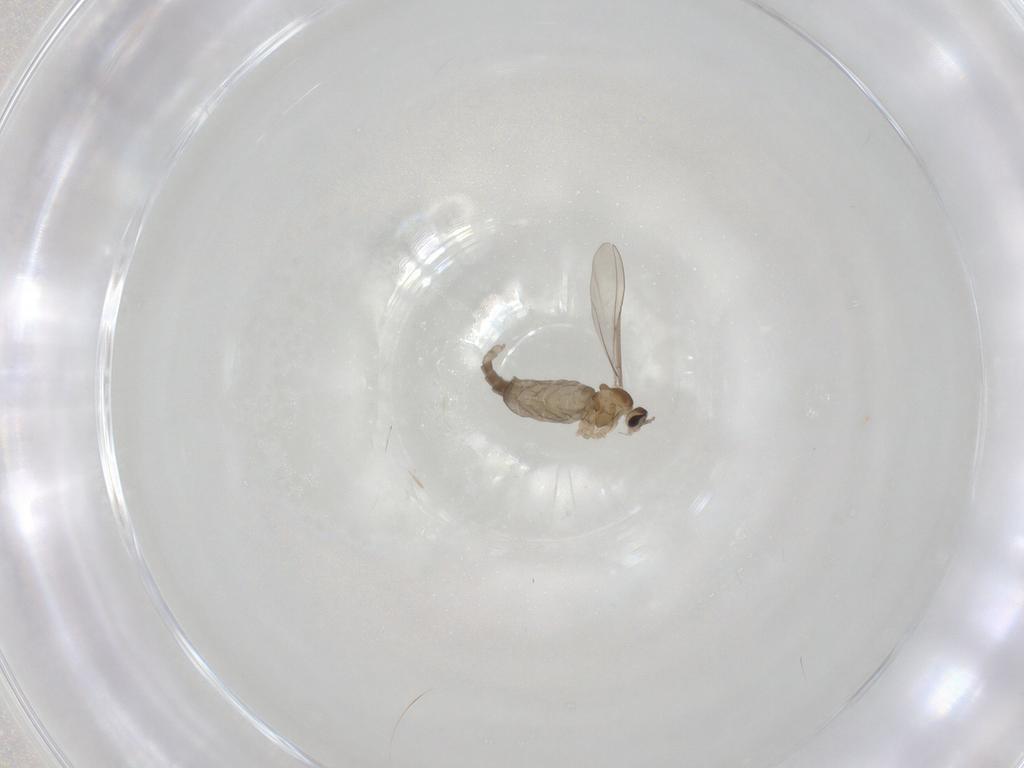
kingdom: Animalia
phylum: Arthropoda
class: Insecta
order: Diptera
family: Cecidomyiidae
